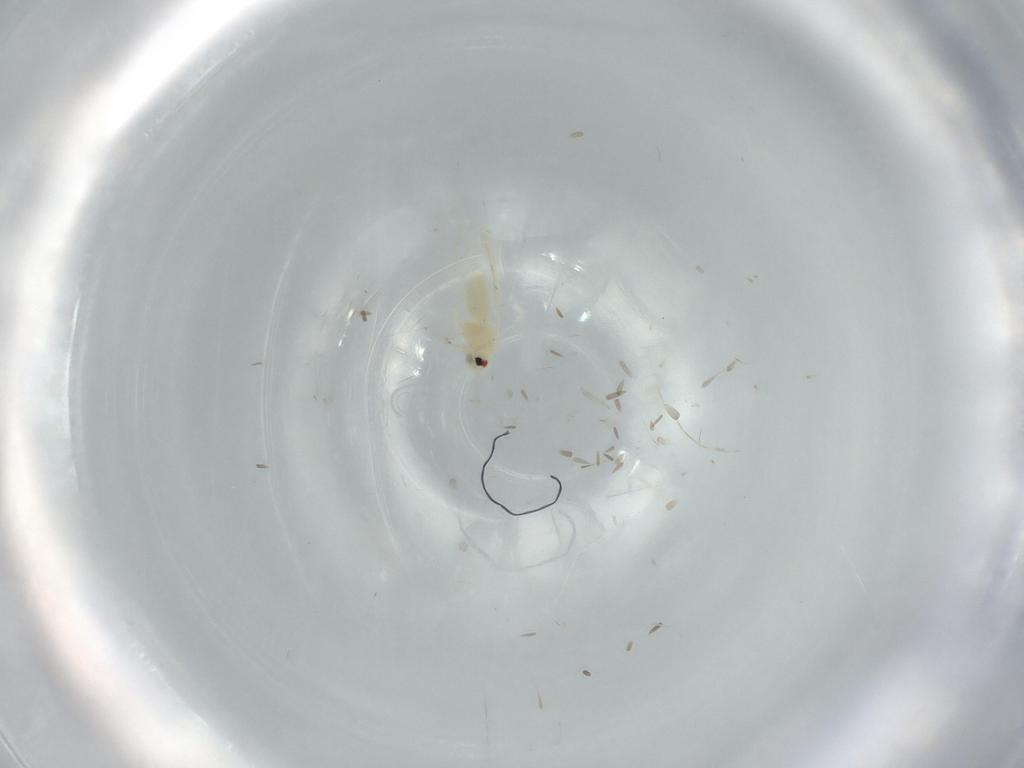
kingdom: Animalia
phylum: Arthropoda
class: Insecta
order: Hemiptera
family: Aleyrodidae
